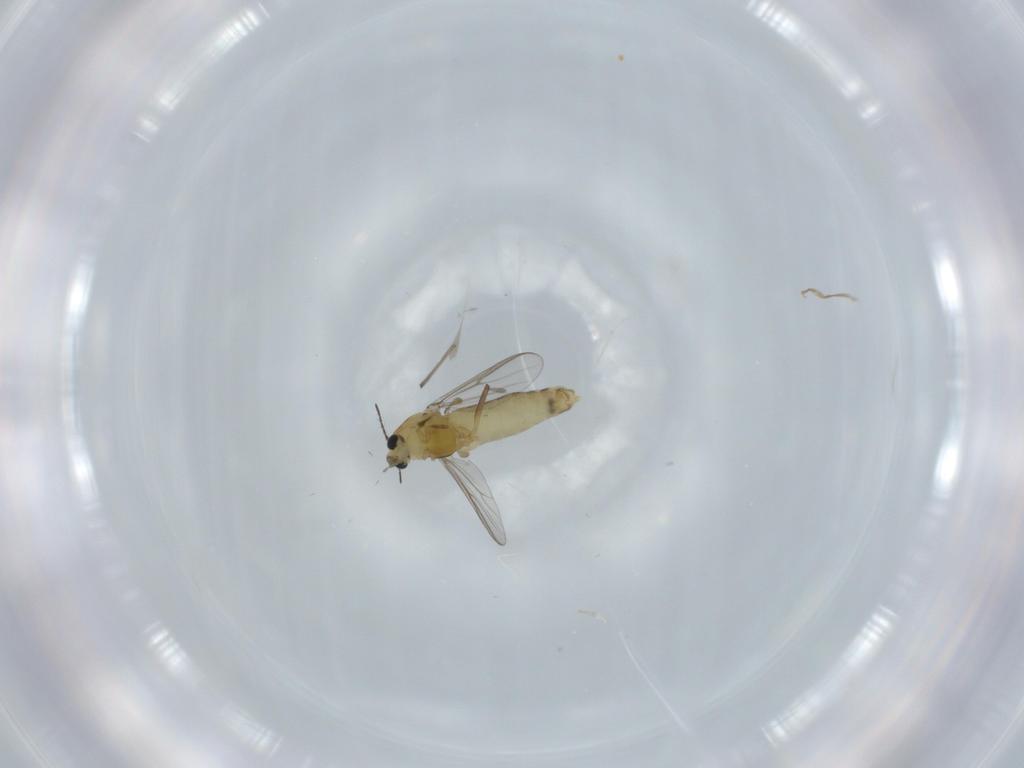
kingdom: Animalia
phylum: Arthropoda
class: Insecta
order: Diptera
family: Chironomidae
